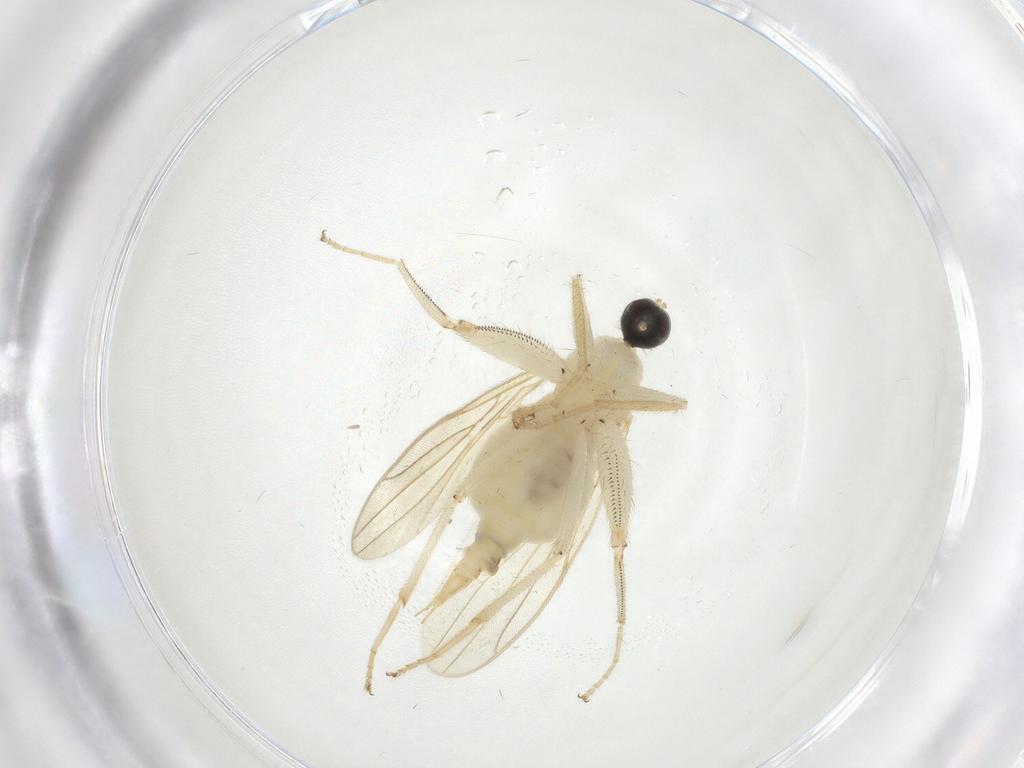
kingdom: Animalia
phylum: Arthropoda
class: Insecta
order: Diptera
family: Hybotidae
